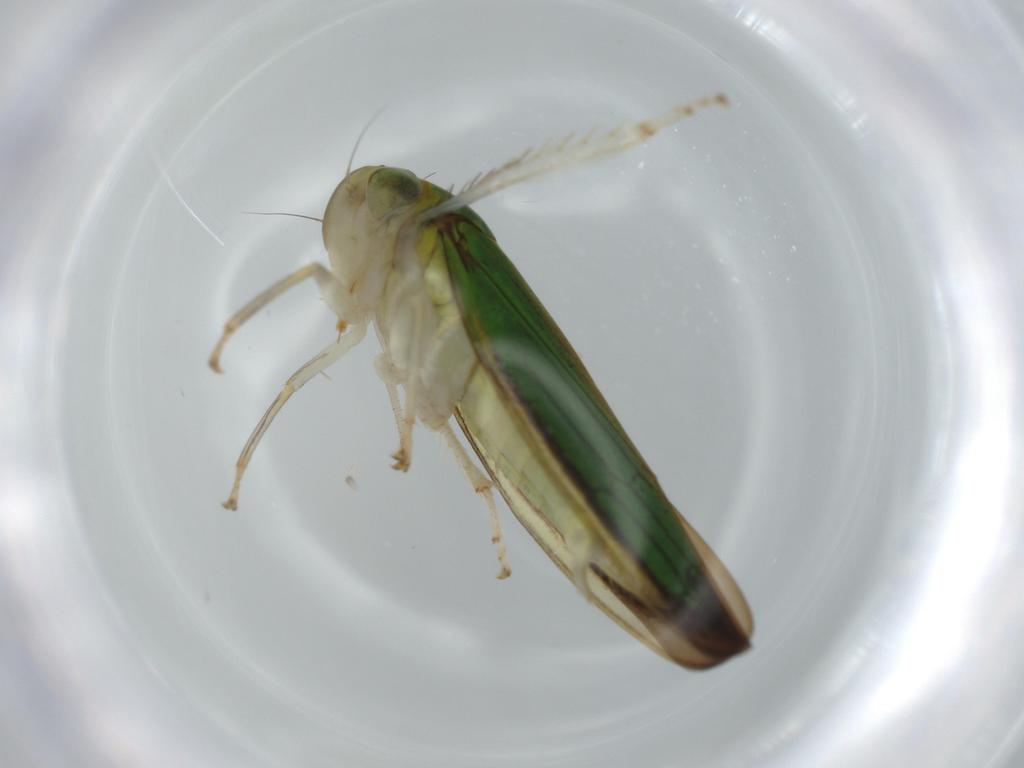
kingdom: Animalia
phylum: Arthropoda
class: Insecta
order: Hemiptera
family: Cicadellidae
